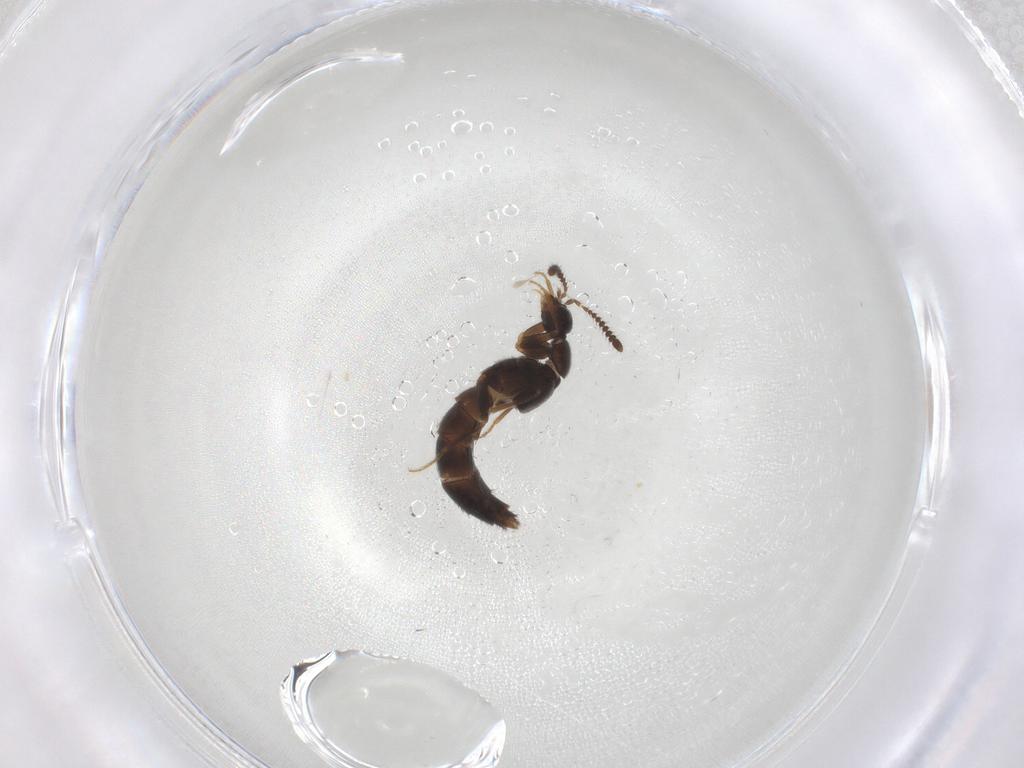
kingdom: Animalia
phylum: Arthropoda
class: Insecta
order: Coleoptera
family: Staphylinidae
